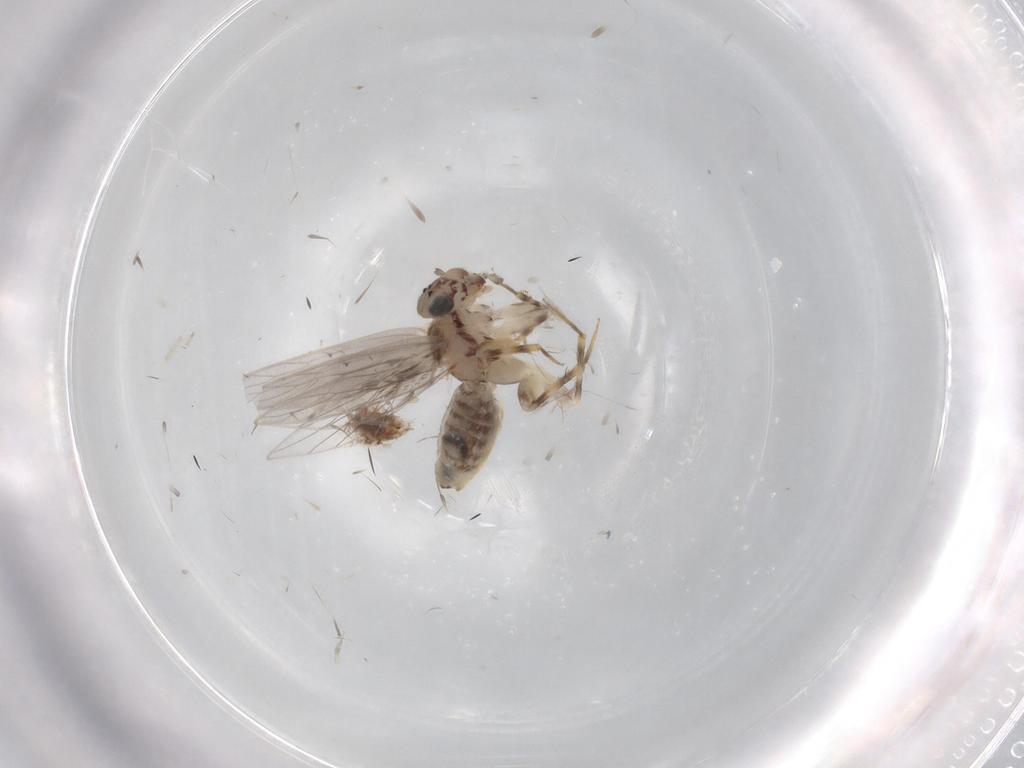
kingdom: Animalia
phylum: Arthropoda
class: Insecta
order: Psocodea
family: Lepidopsocidae
